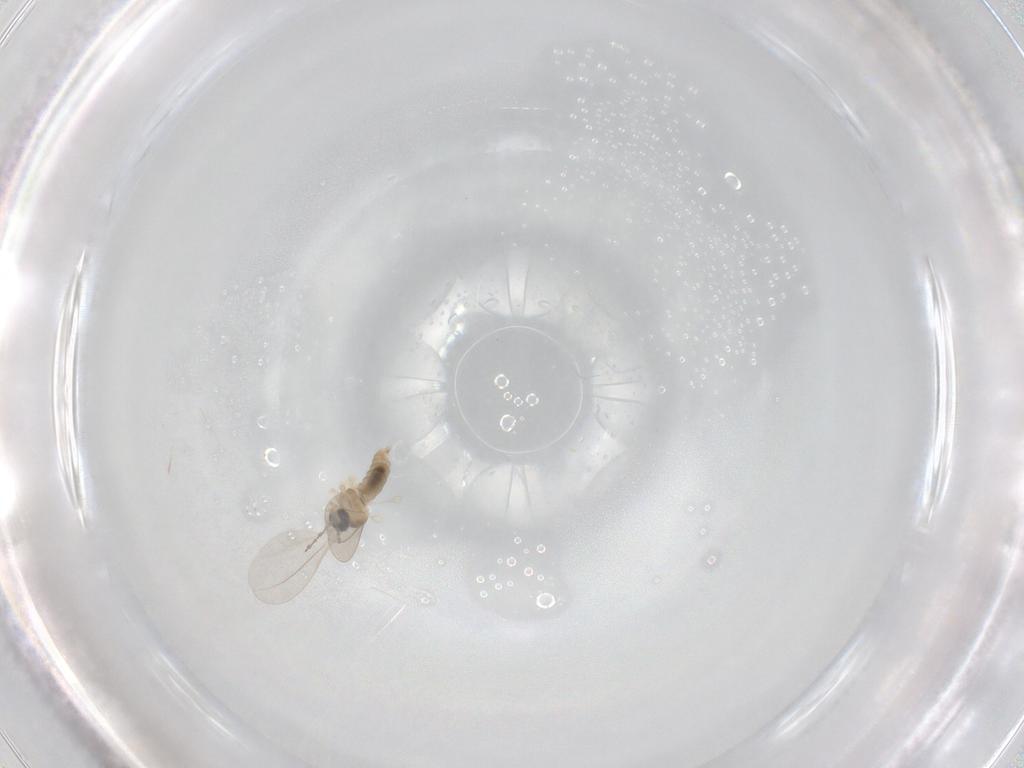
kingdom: Animalia
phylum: Arthropoda
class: Insecta
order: Diptera
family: Cecidomyiidae
